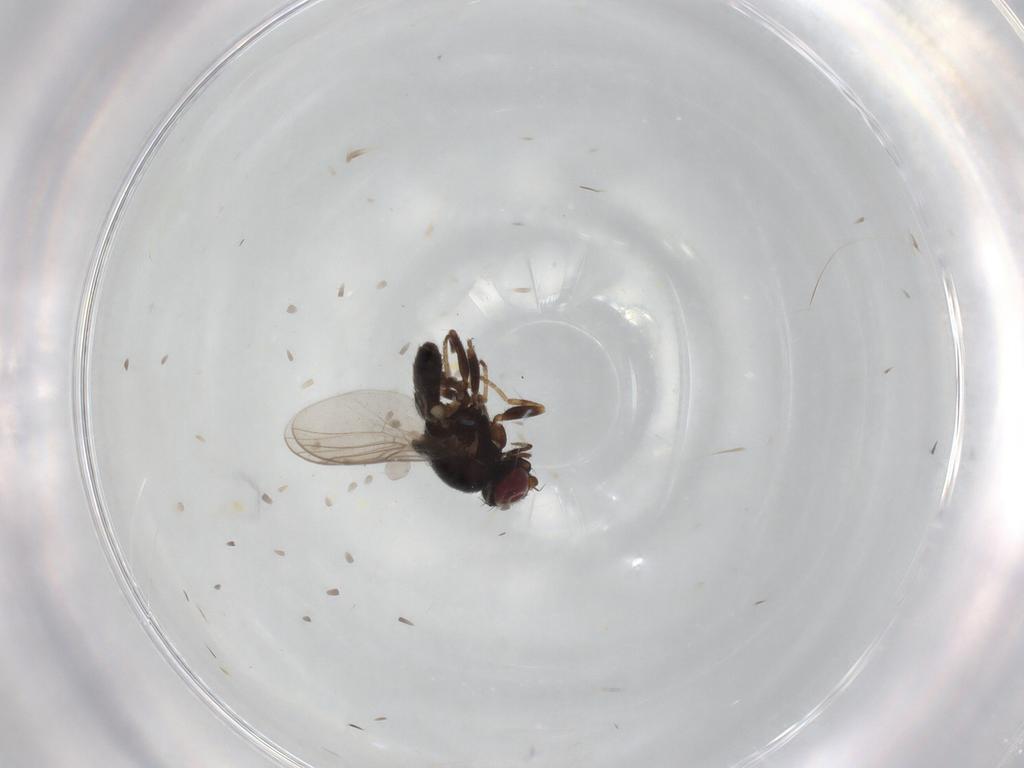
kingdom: Animalia
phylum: Arthropoda
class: Insecta
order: Diptera
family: Chloropidae
